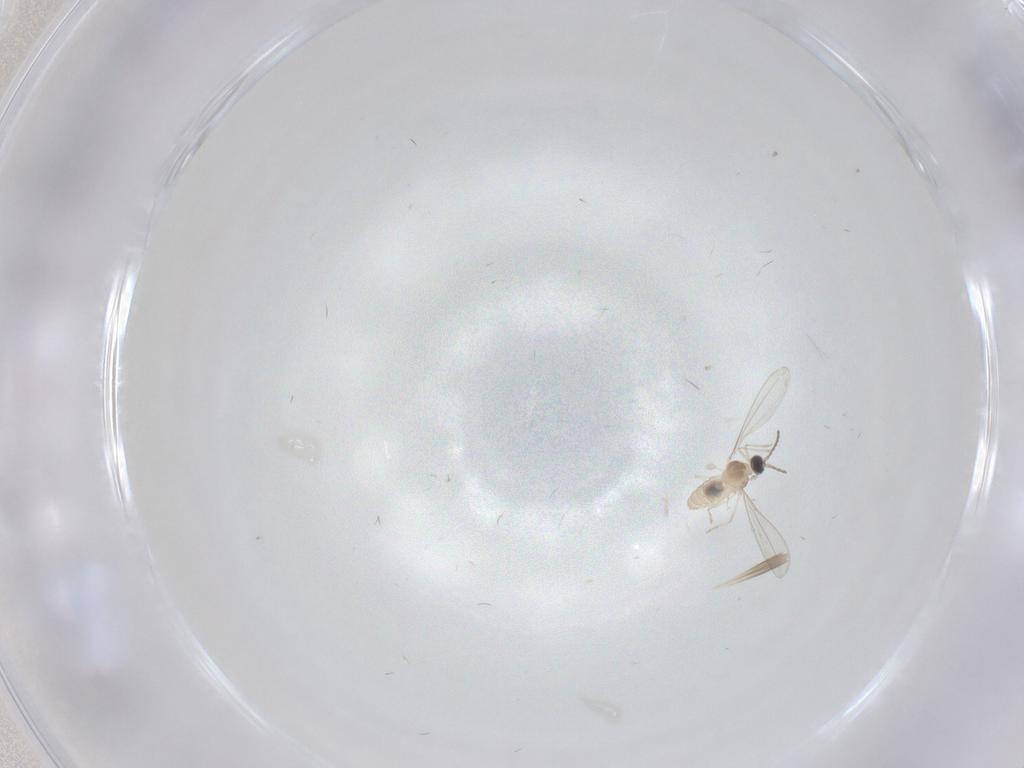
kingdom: Animalia
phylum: Arthropoda
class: Insecta
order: Diptera
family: Cecidomyiidae
